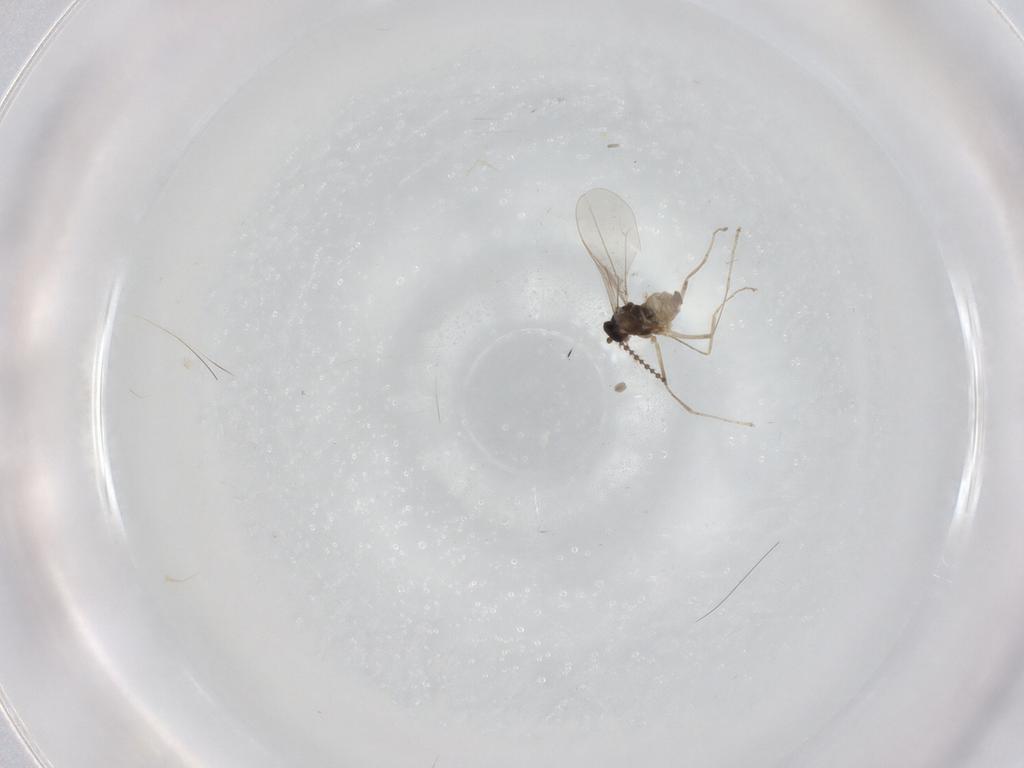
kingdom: Animalia
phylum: Arthropoda
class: Insecta
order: Diptera
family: Cecidomyiidae
